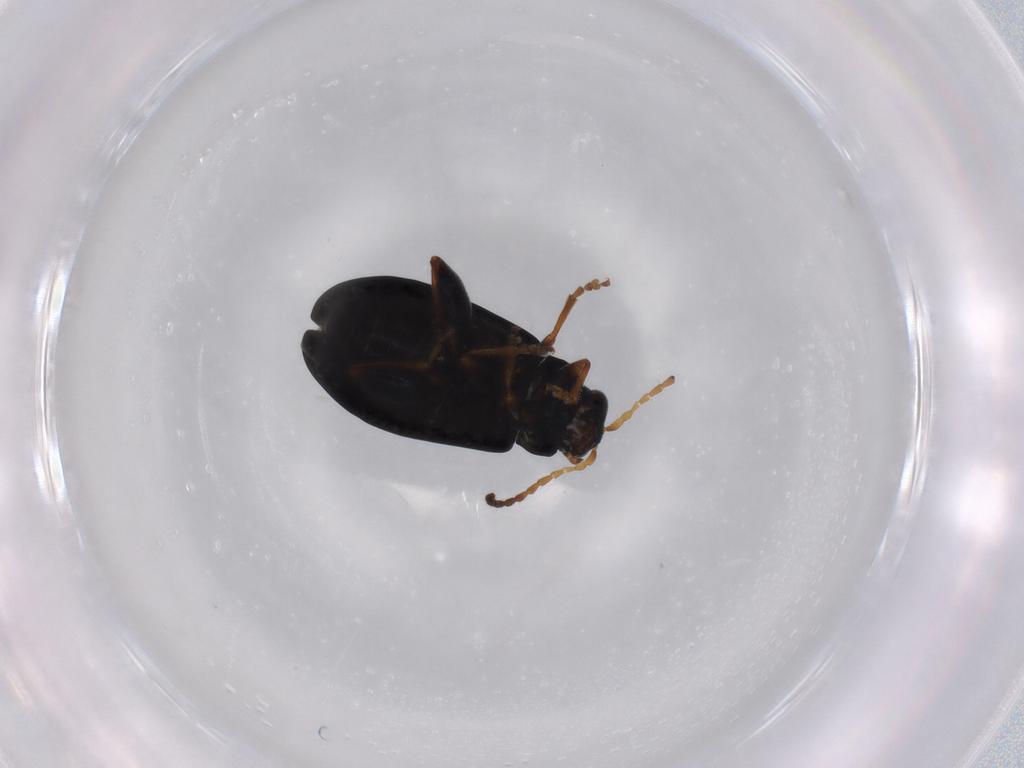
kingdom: Animalia
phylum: Arthropoda
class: Insecta
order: Coleoptera
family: Chrysomelidae
